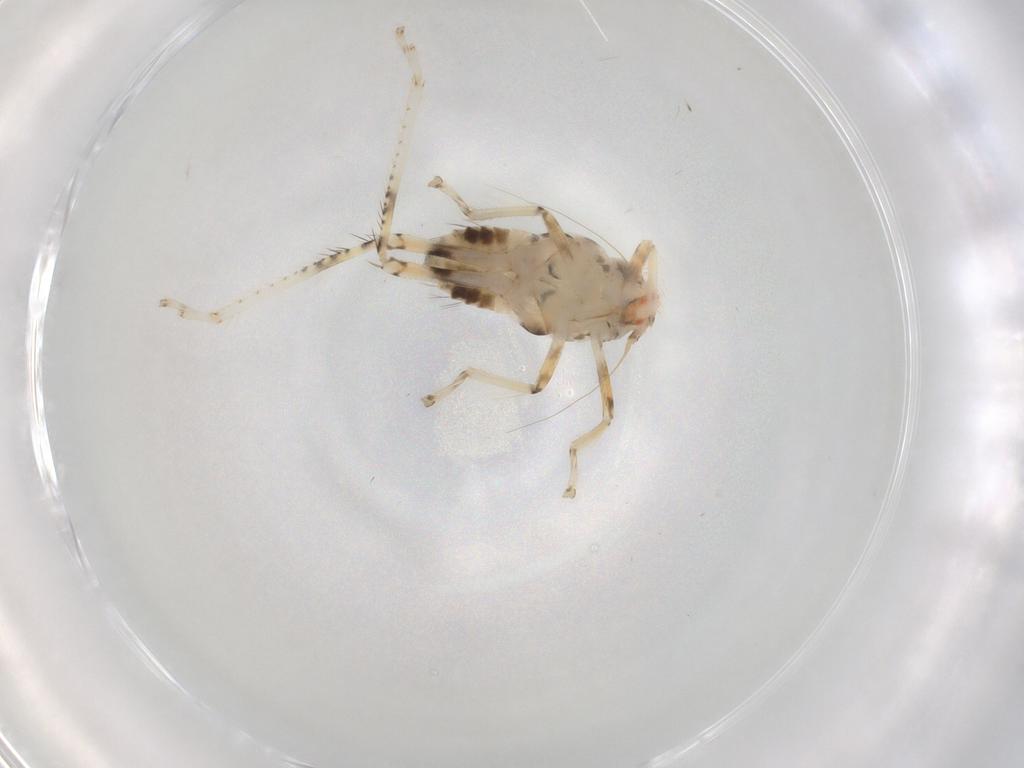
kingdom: Animalia
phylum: Arthropoda
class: Insecta
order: Hemiptera
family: Cicadellidae
